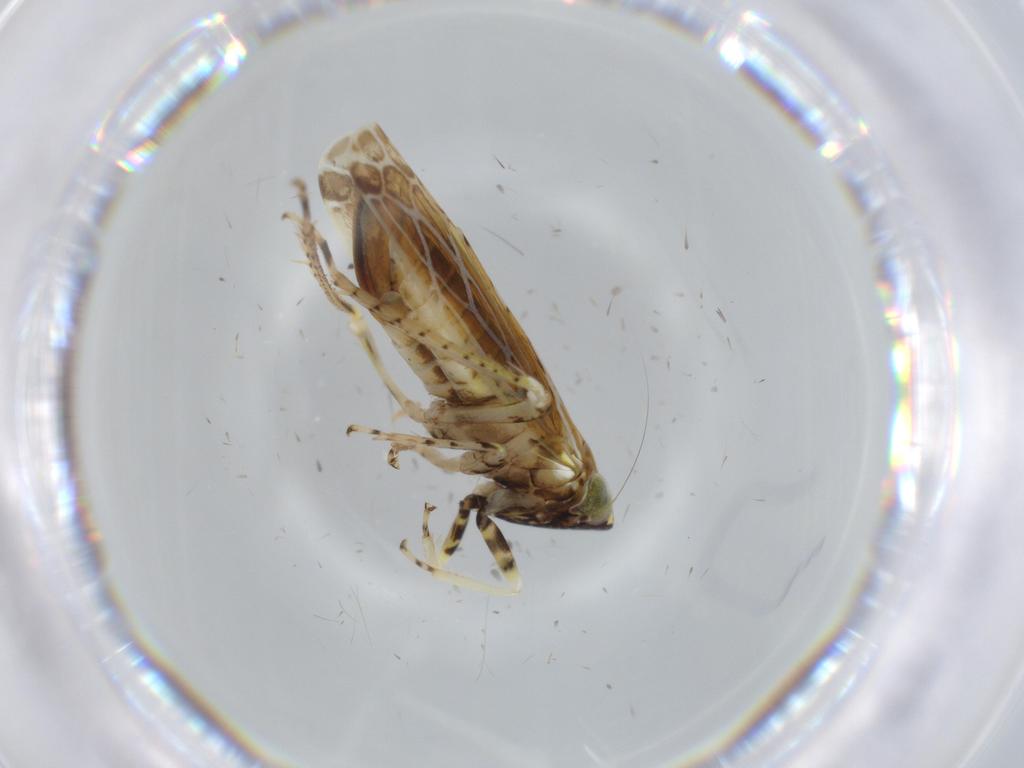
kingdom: Animalia
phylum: Arthropoda
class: Insecta
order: Hemiptera
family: Cicadellidae
